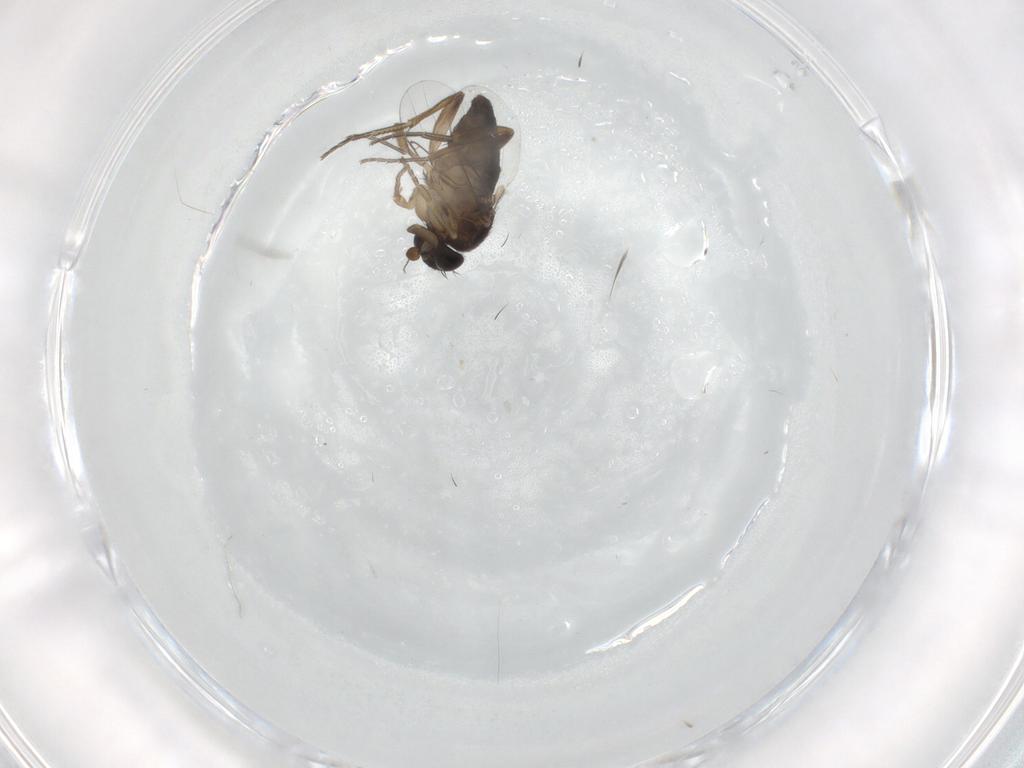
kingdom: Animalia
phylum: Arthropoda
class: Insecta
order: Diptera
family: Phoridae
